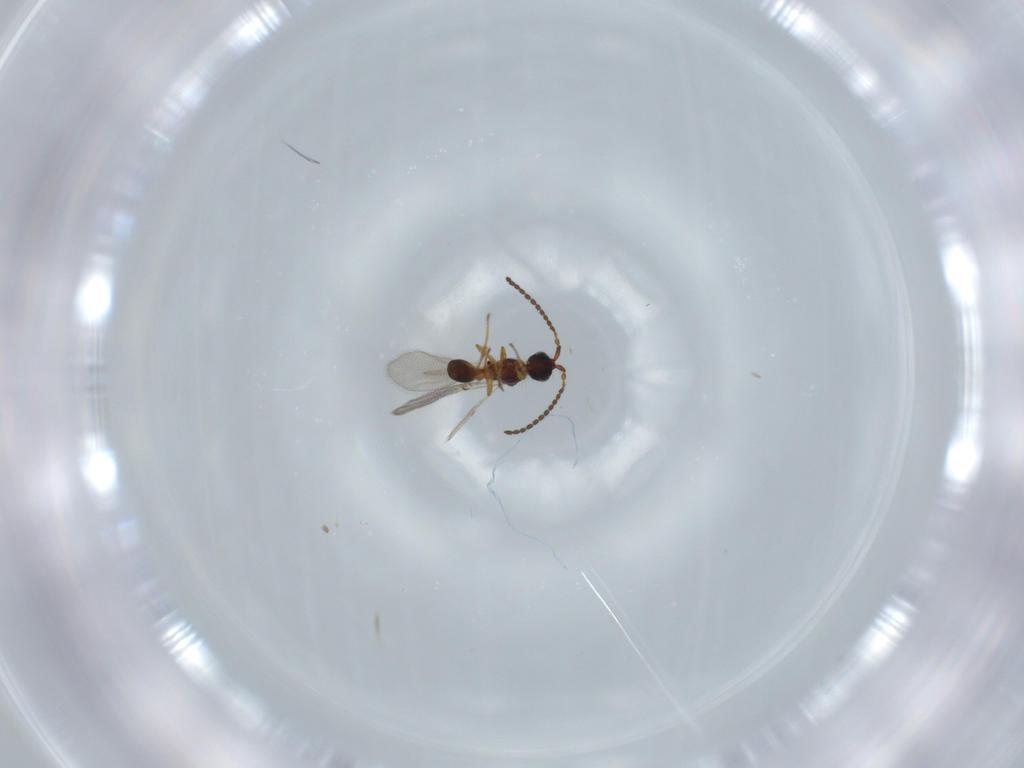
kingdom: Animalia
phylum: Arthropoda
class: Insecta
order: Hymenoptera
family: Diapriidae
